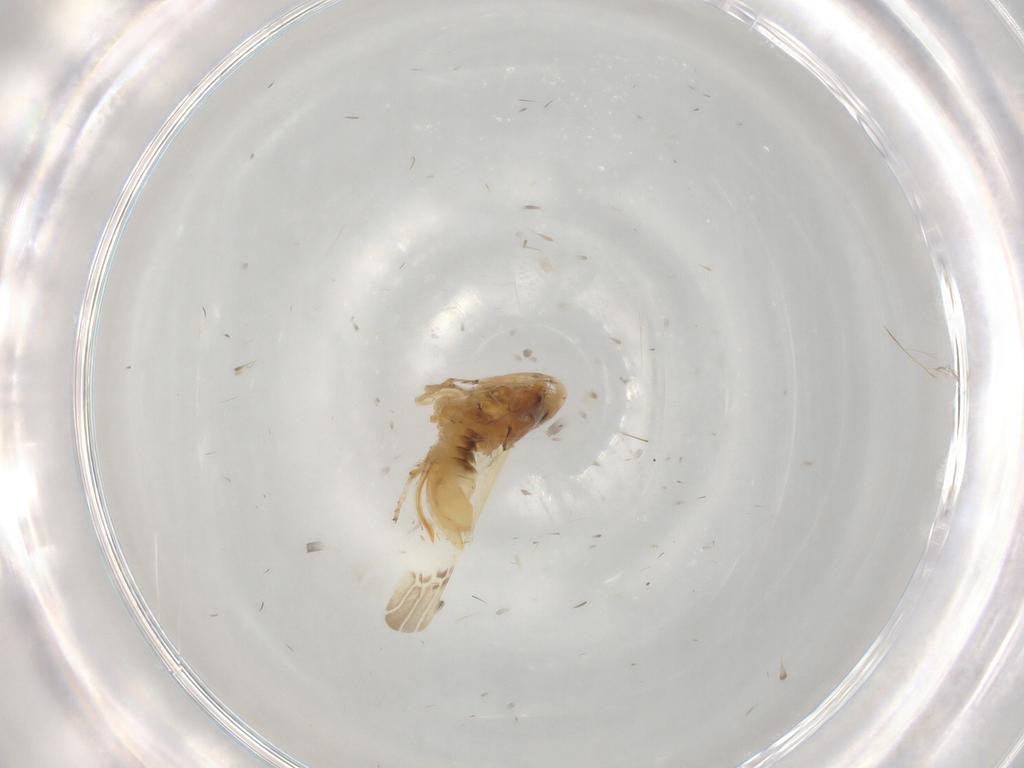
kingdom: Animalia
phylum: Arthropoda
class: Insecta
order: Hemiptera
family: Cicadellidae
